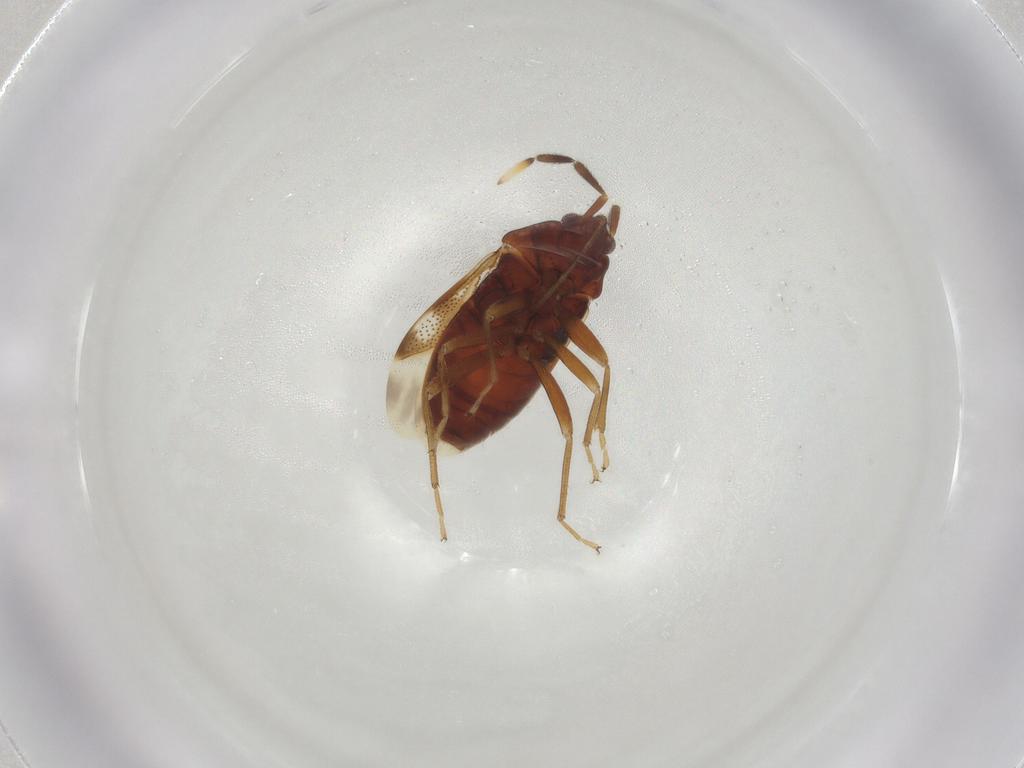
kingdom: Animalia
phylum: Arthropoda
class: Insecta
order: Hemiptera
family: Rhyparochromidae
